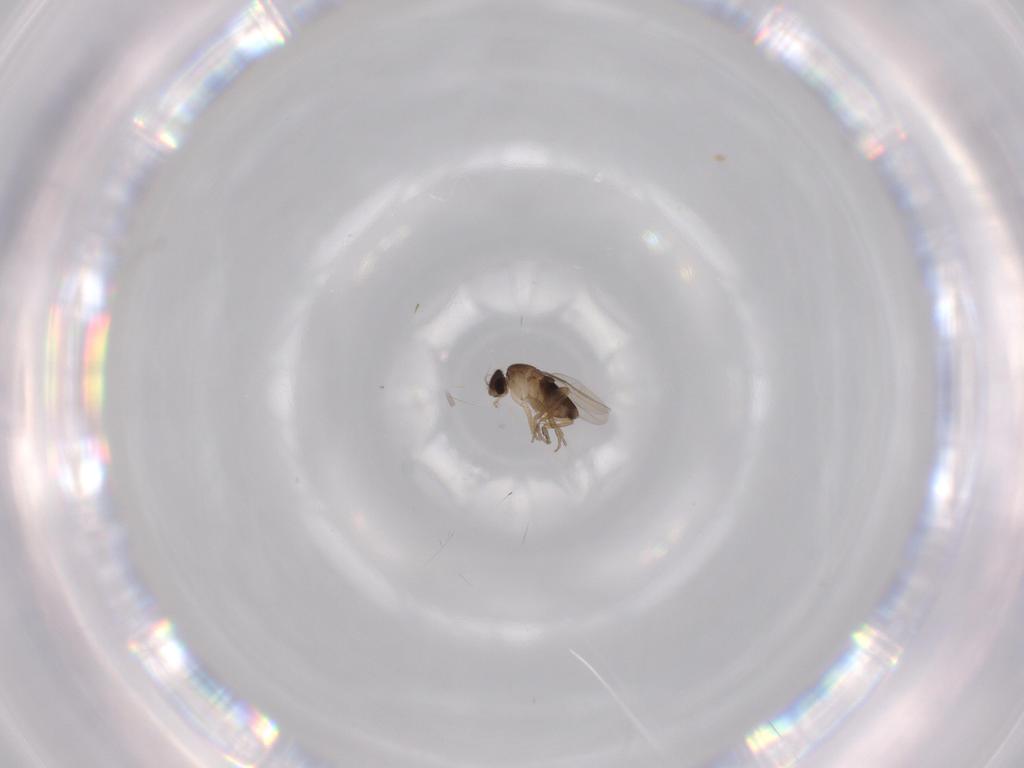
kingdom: Animalia
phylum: Arthropoda
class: Insecta
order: Diptera
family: Phoridae
